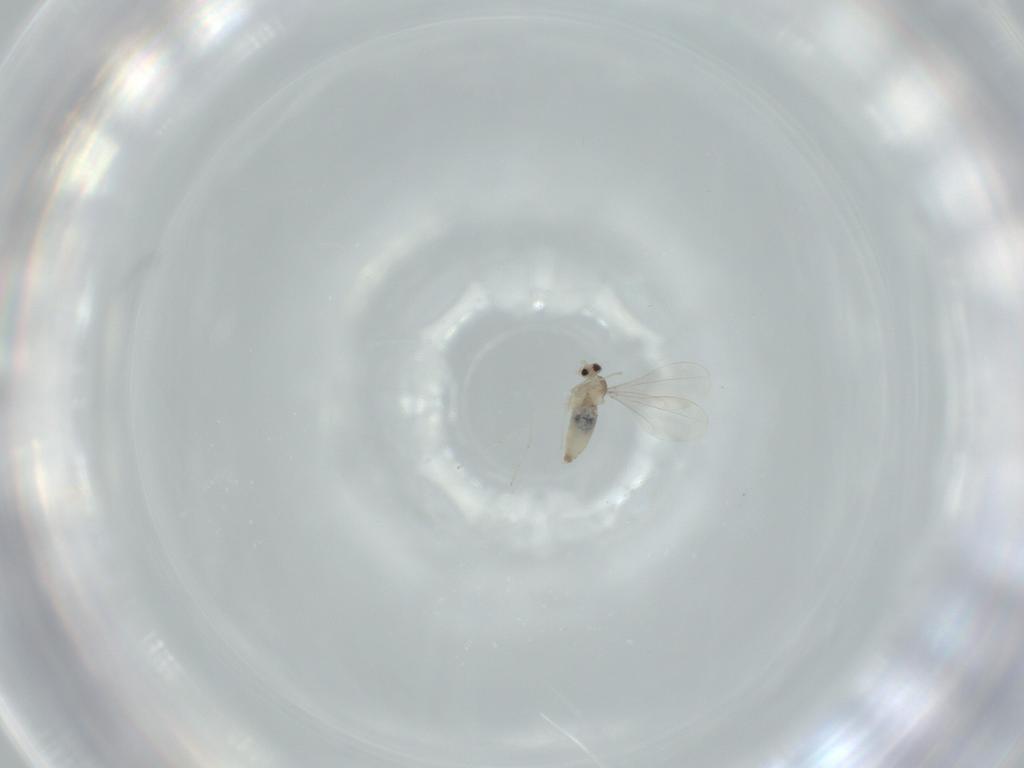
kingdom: Animalia
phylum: Arthropoda
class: Insecta
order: Diptera
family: Cecidomyiidae
